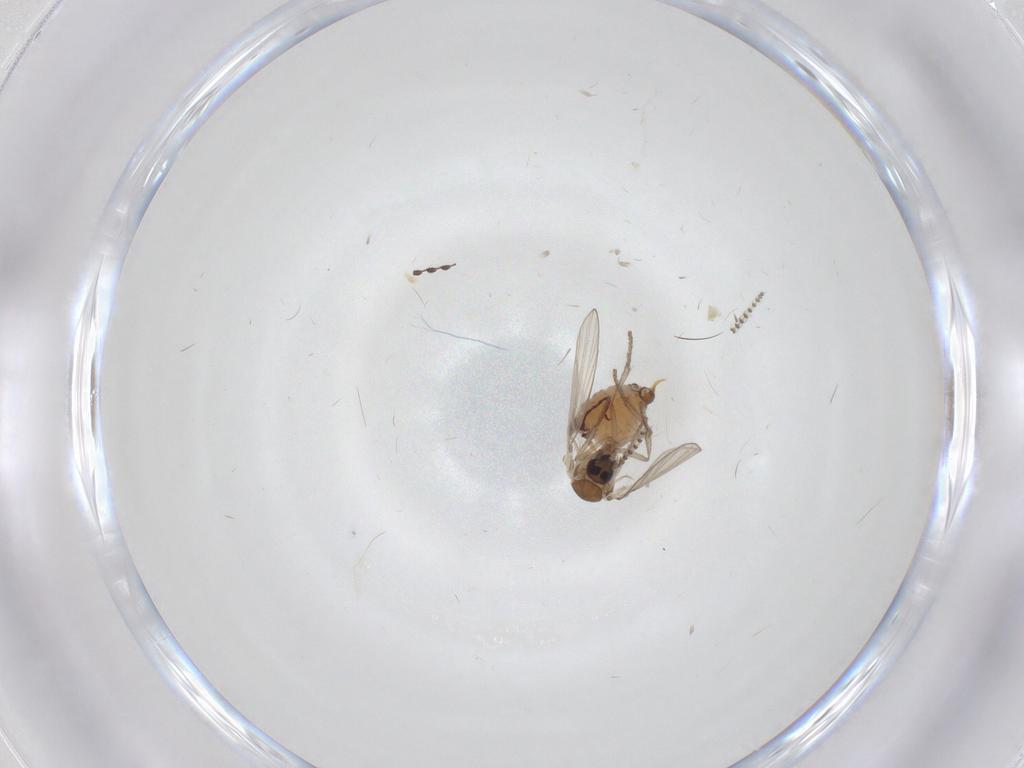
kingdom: Animalia
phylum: Arthropoda
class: Insecta
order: Diptera
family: Psychodidae
